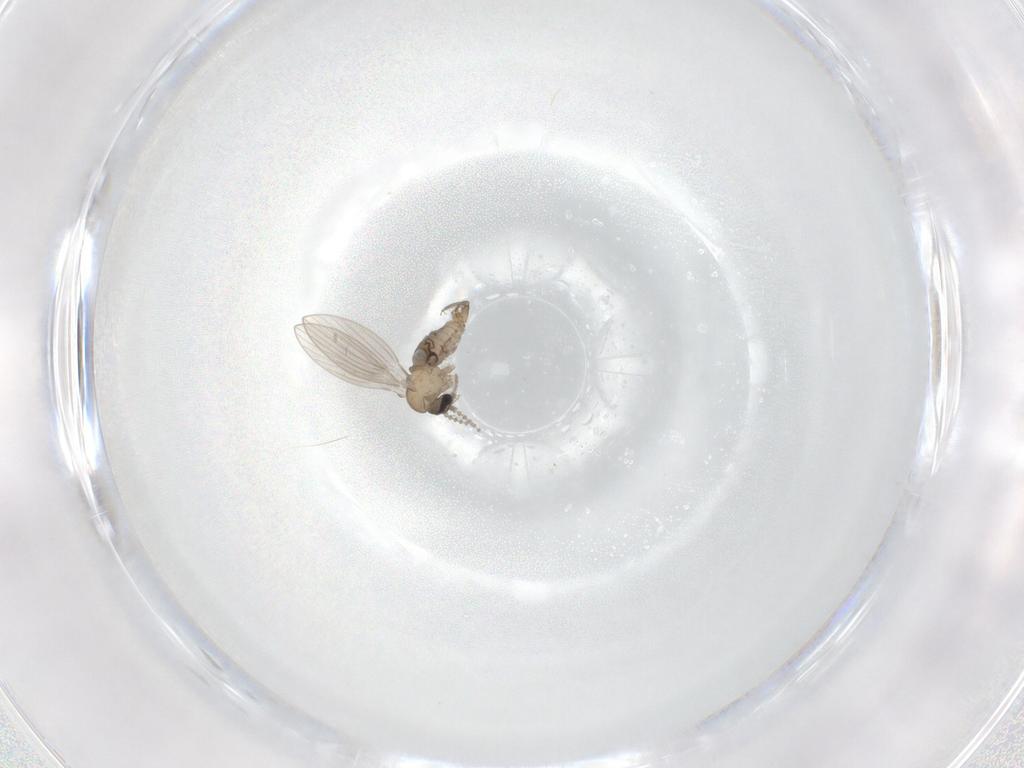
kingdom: Animalia
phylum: Arthropoda
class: Insecta
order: Diptera
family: Psychodidae
